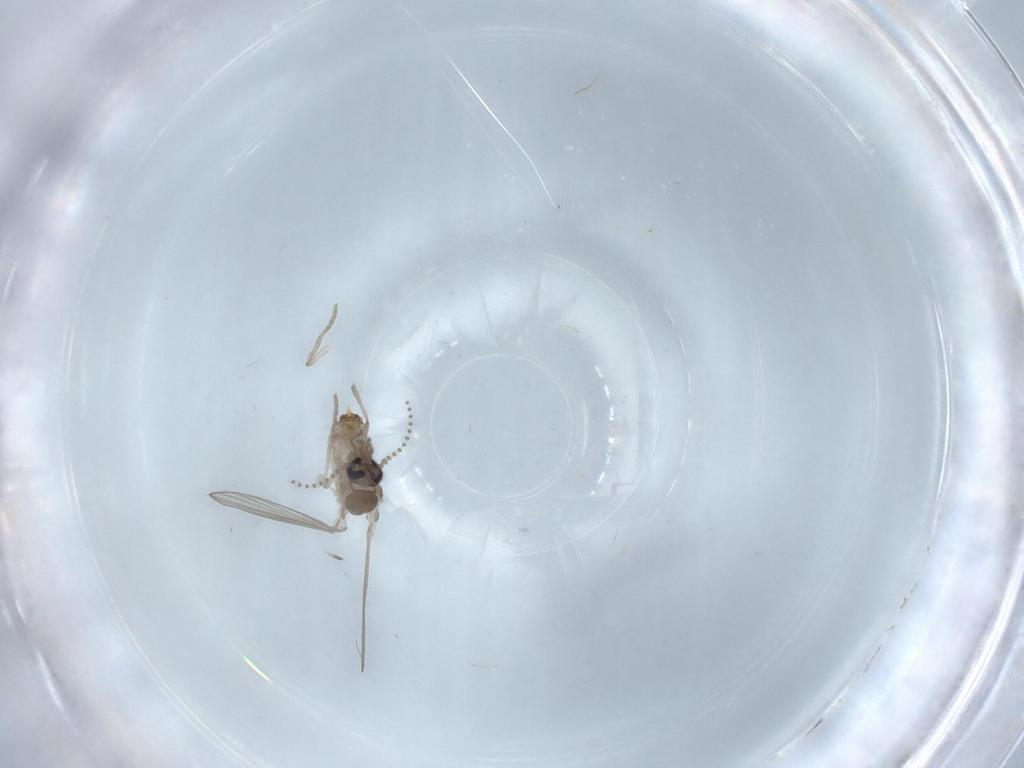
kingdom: Animalia
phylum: Arthropoda
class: Insecta
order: Diptera
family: Psychodidae
